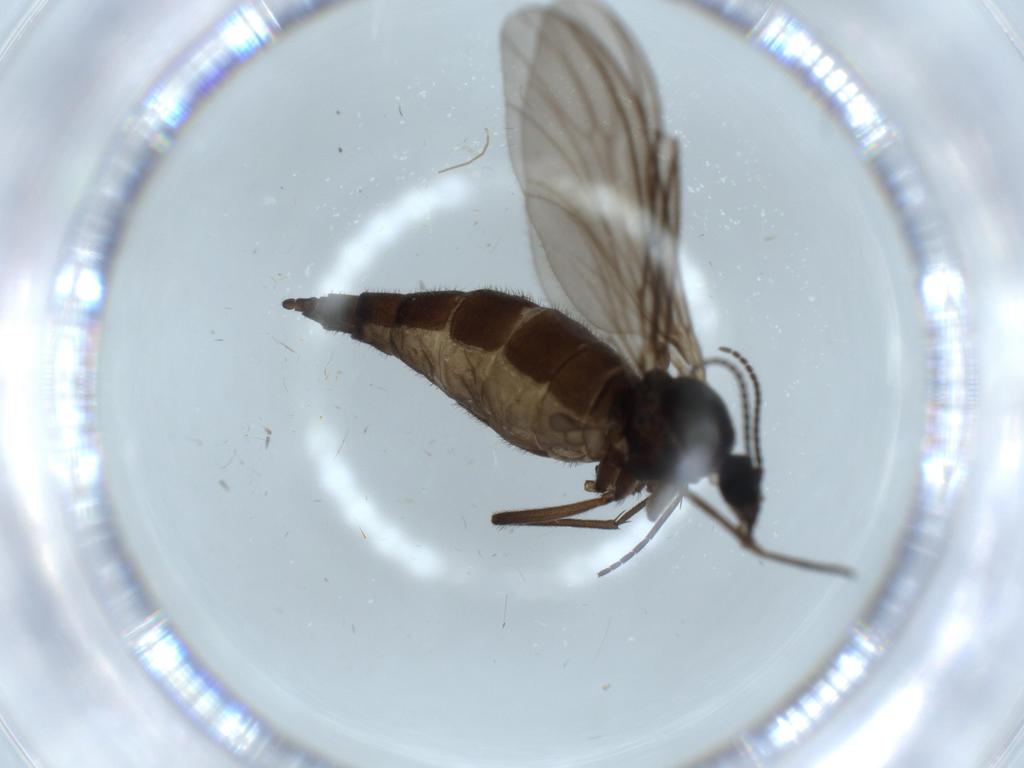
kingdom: Animalia
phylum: Arthropoda
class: Insecta
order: Diptera
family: Sciaridae
